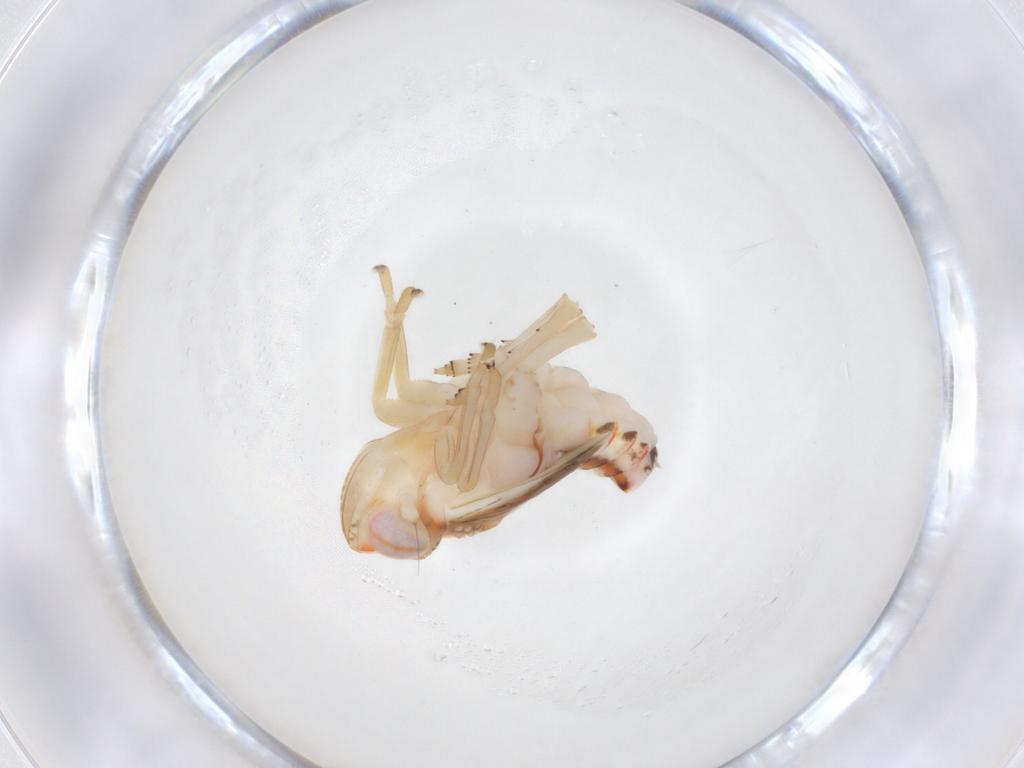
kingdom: Animalia
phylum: Arthropoda
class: Insecta
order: Hemiptera
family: Nogodinidae
